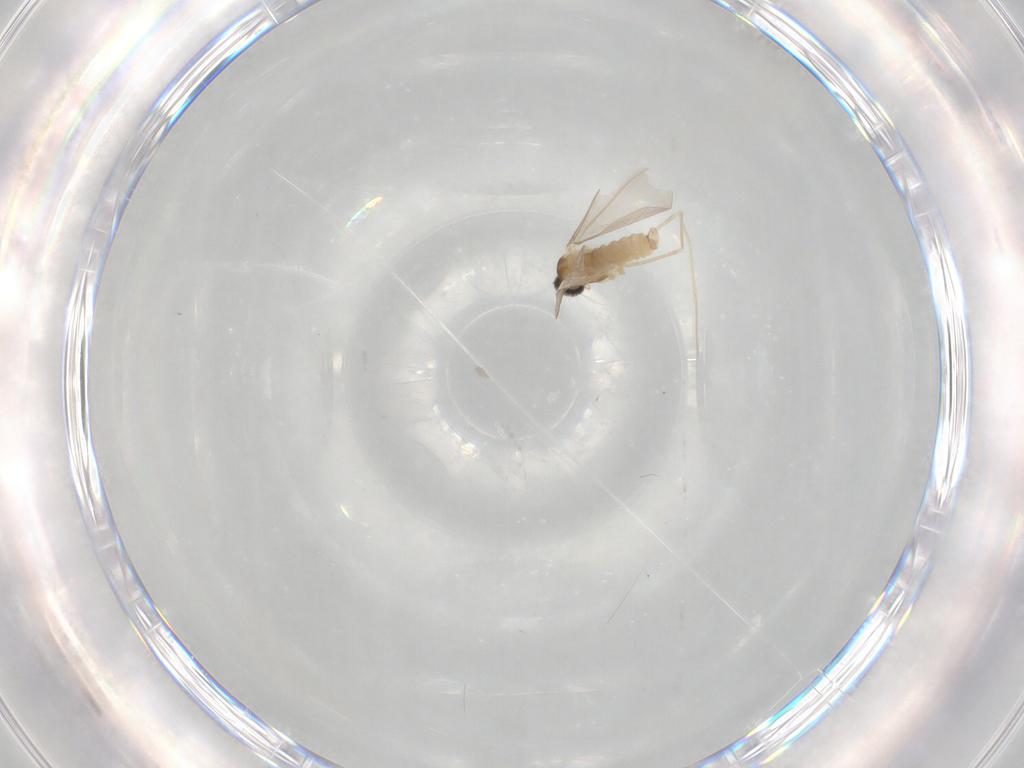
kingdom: Animalia
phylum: Arthropoda
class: Insecta
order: Diptera
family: Cecidomyiidae
